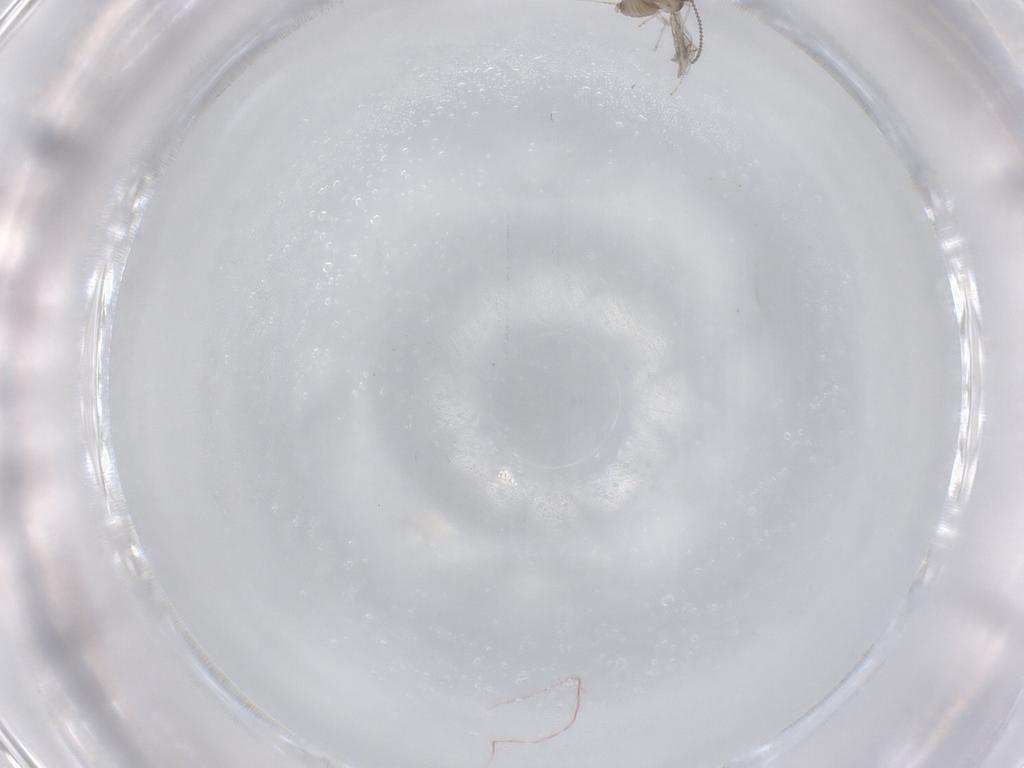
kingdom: Animalia
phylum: Arthropoda
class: Insecta
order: Diptera
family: Cecidomyiidae
